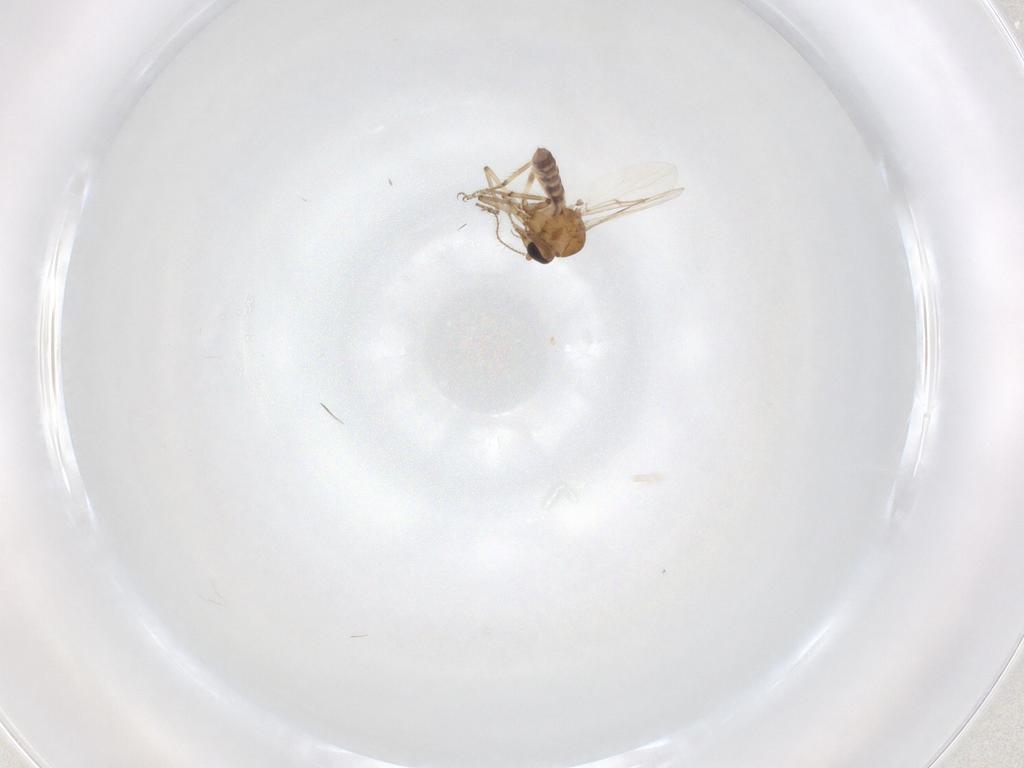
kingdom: Animalia
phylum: Arthropoda
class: Insecta
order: Diptera
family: Ceratopogonidae
